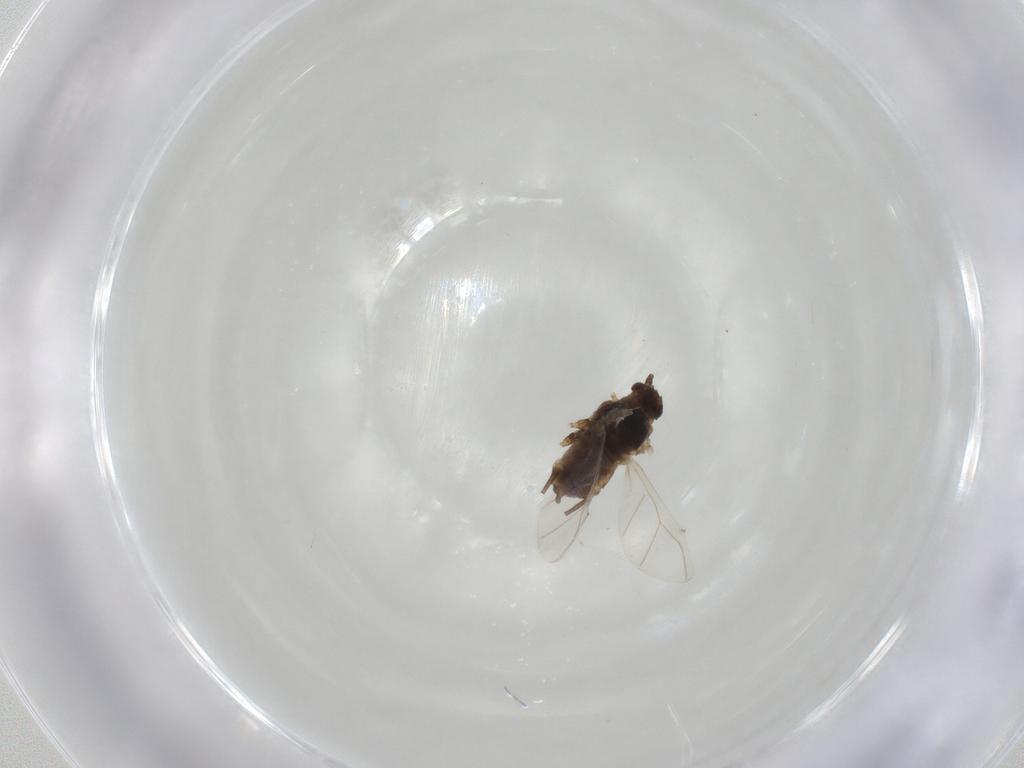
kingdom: Animalia
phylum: Arthropoda
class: Insecta
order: Hemiptera
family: Aphididae
